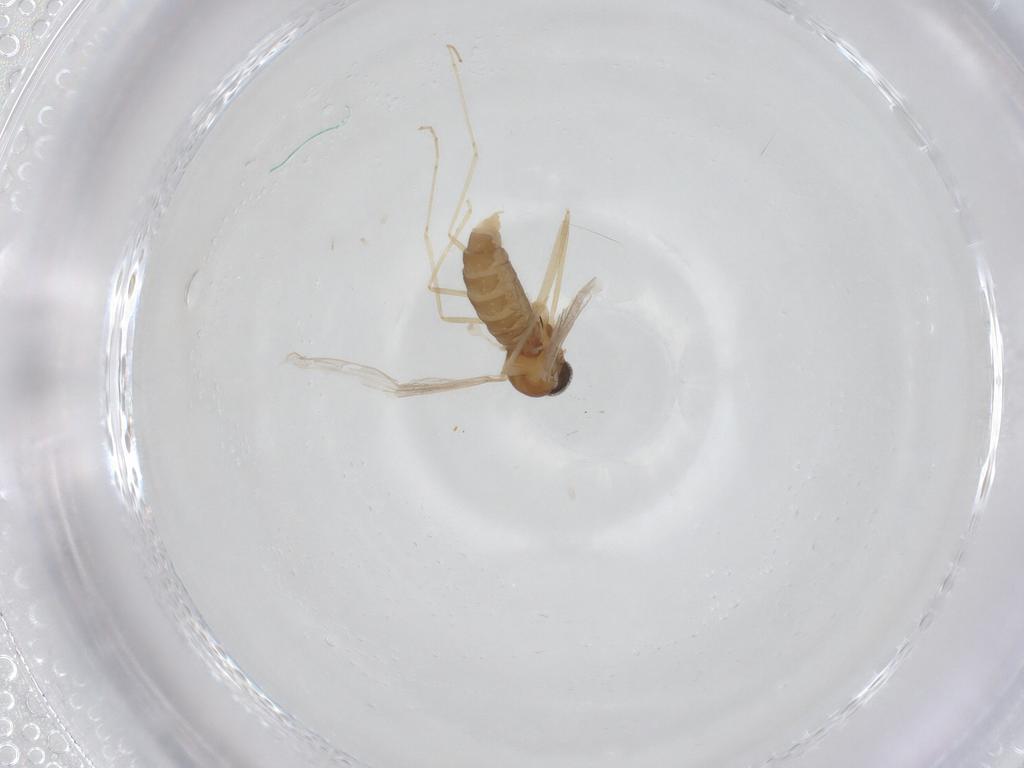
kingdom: Animalia
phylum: Arthropoda
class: Insecta
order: Diptera
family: Cecidomyiidae
